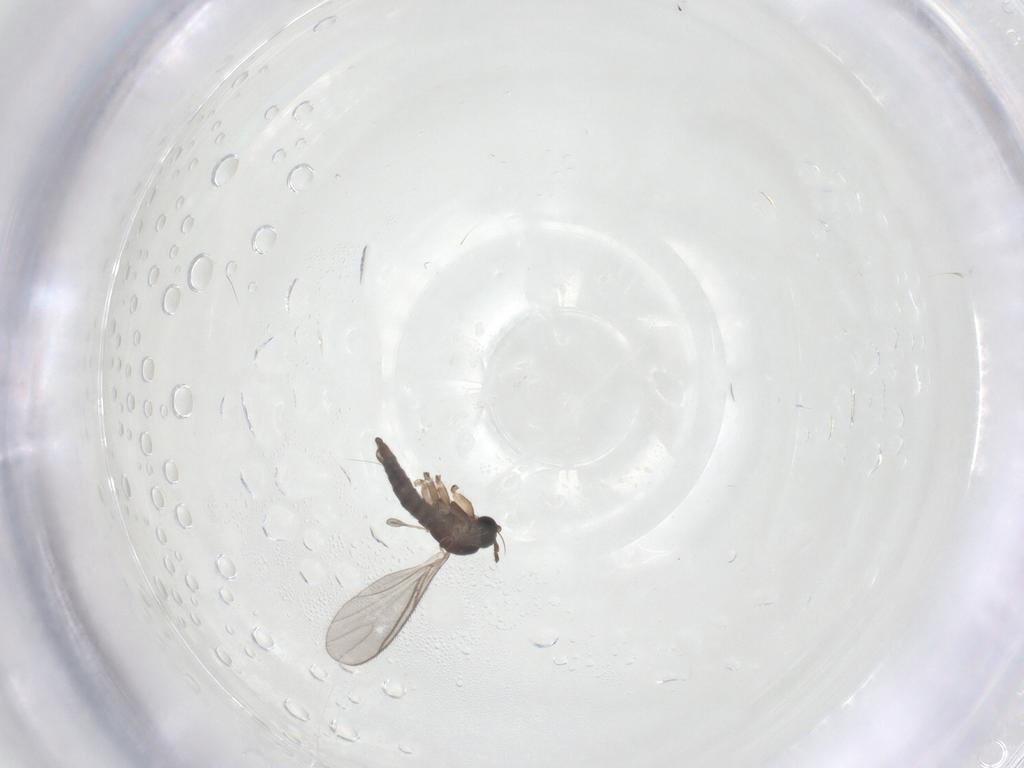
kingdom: Animalia
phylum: Arthropoda
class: Insecta
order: Diptera
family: Sciaridae
